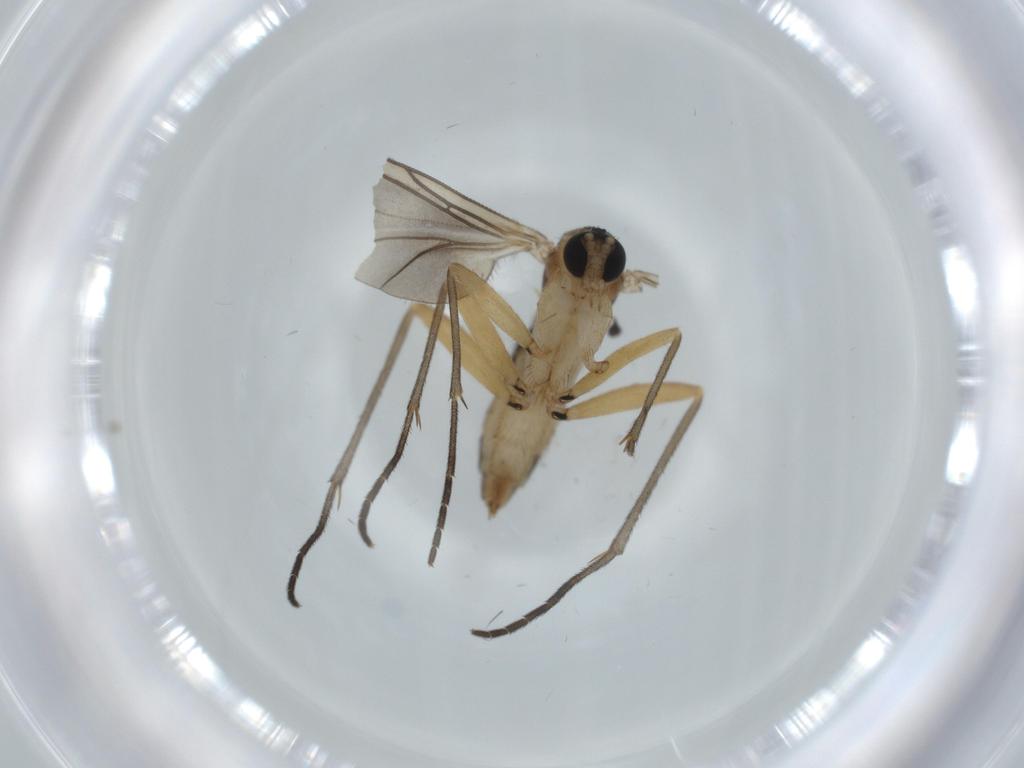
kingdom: Animalia
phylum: Arthropoda
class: Insecta
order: Diptera
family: Sciaridae
